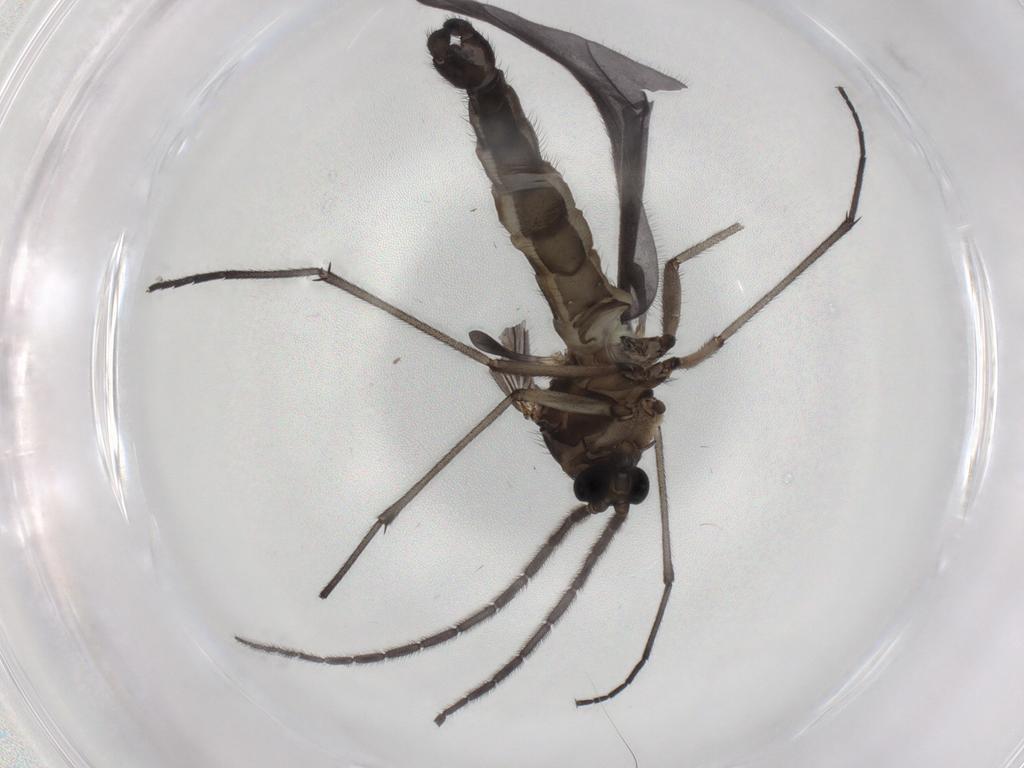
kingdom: Animalia
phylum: Arthropoda
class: Insecta
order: Diptera
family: Sciaridae
